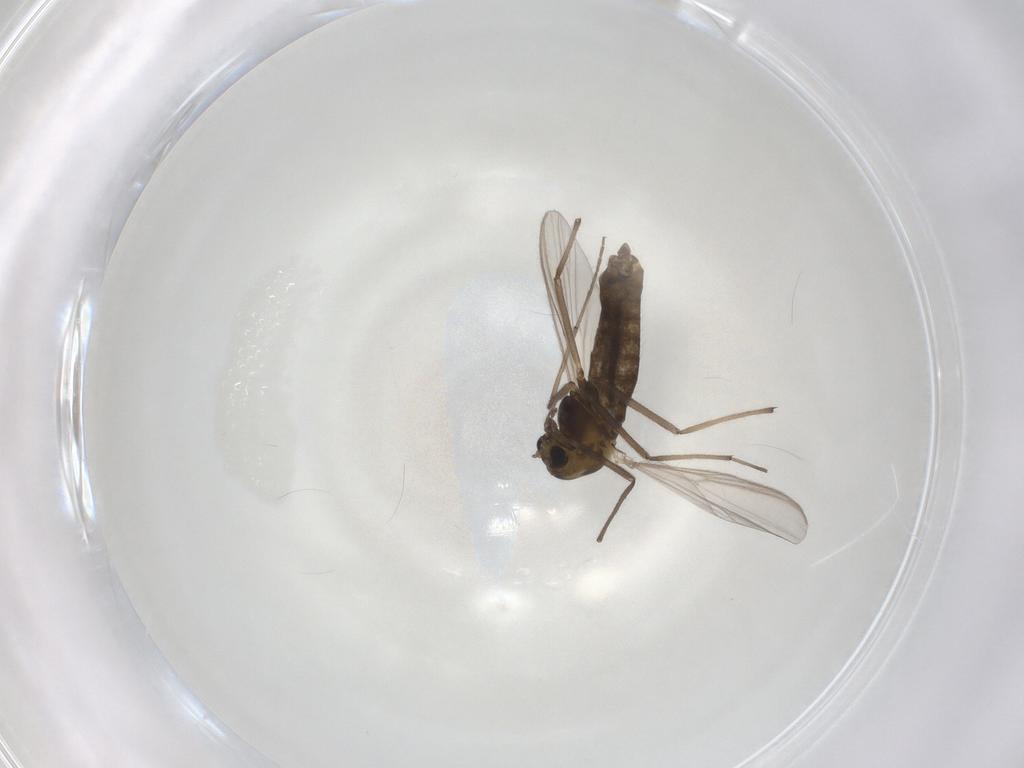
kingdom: Animalia
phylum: Arthropoda
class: Insecta
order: Diptera
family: Chironomidae
